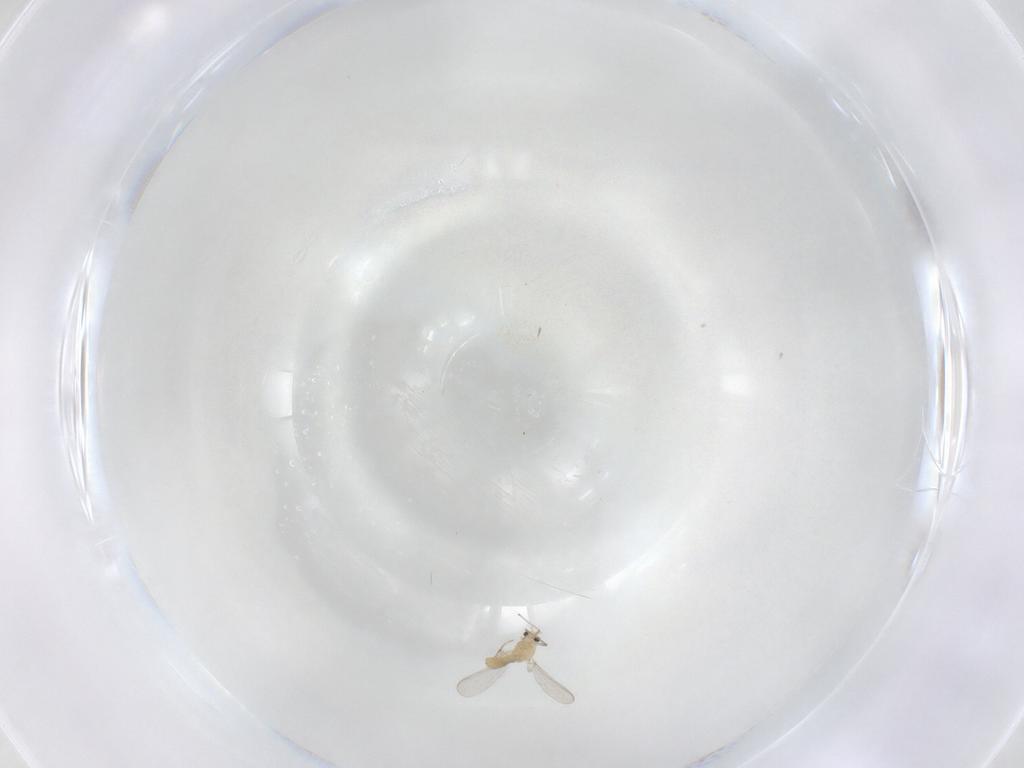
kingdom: Animalia
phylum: Arthropoda
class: Insecta
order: Diptera
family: Chironomidae
